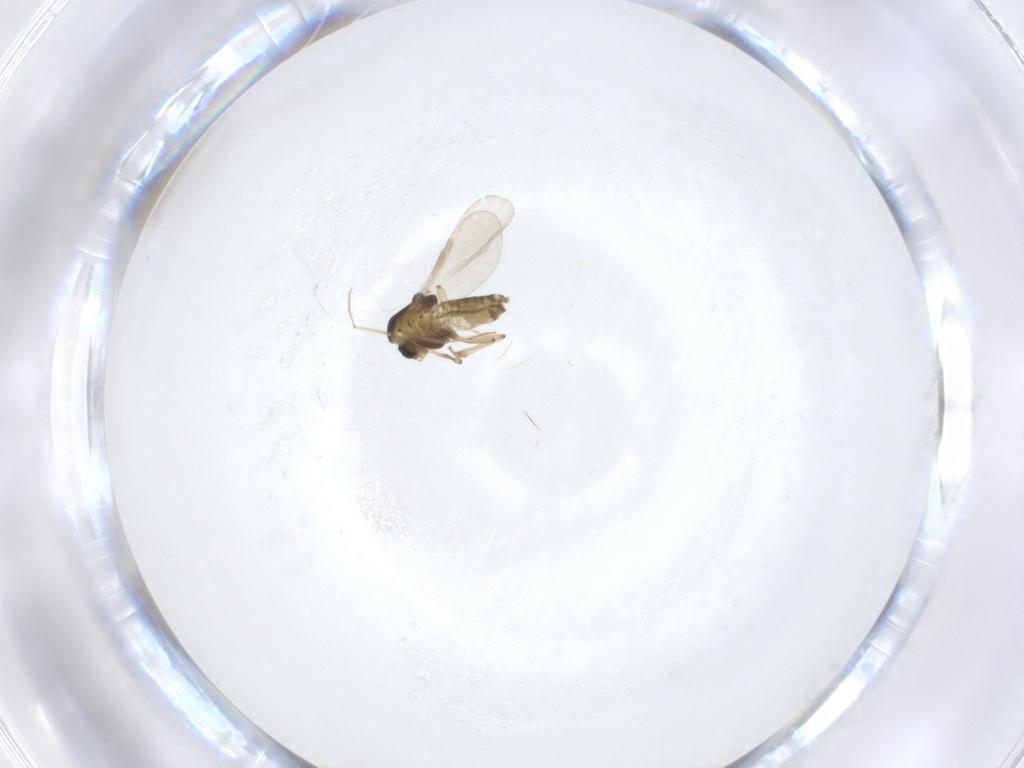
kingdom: Animalia
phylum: Arthropoda
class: Insecta
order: Diptera
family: Chironomidae
